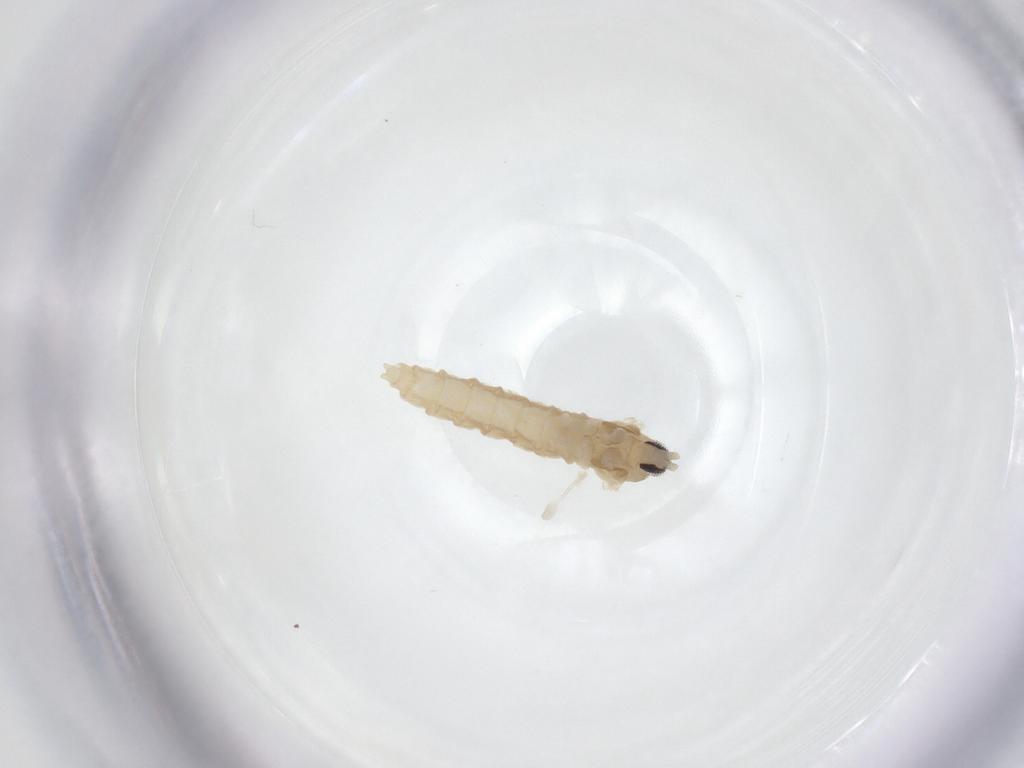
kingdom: Animalia
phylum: Arthropoda
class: Insecta
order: Diptera
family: Cecidomyiidae
